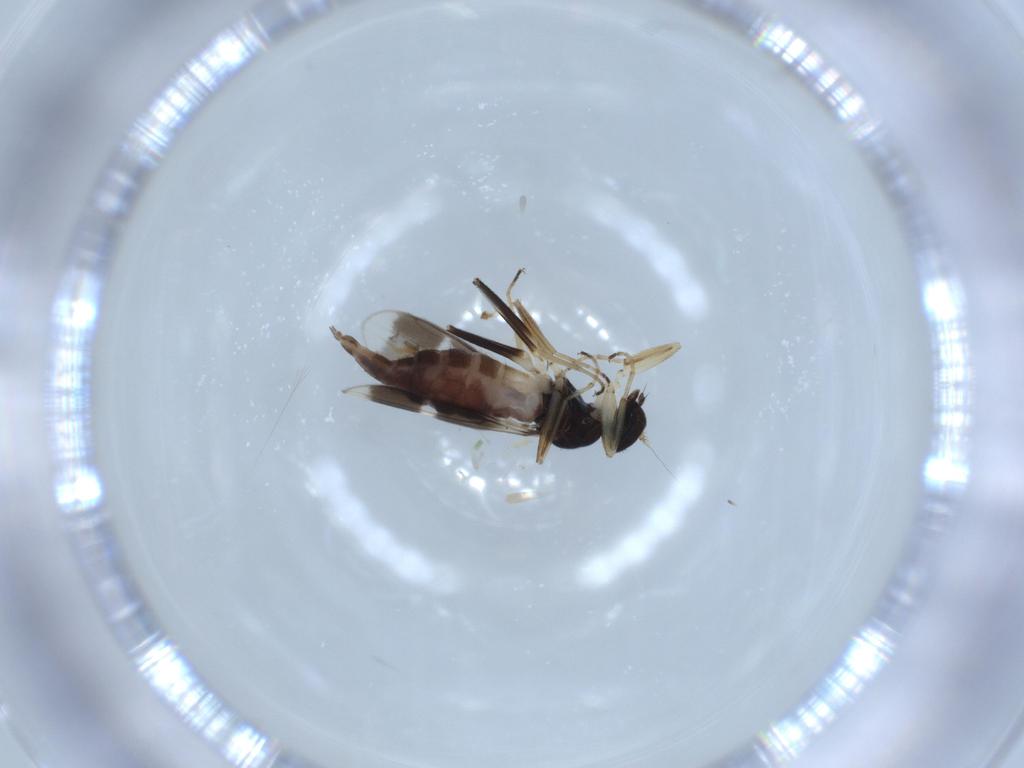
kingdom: Animalia
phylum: Arthropoda
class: Insecta
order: Diptera
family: Hybotidae
